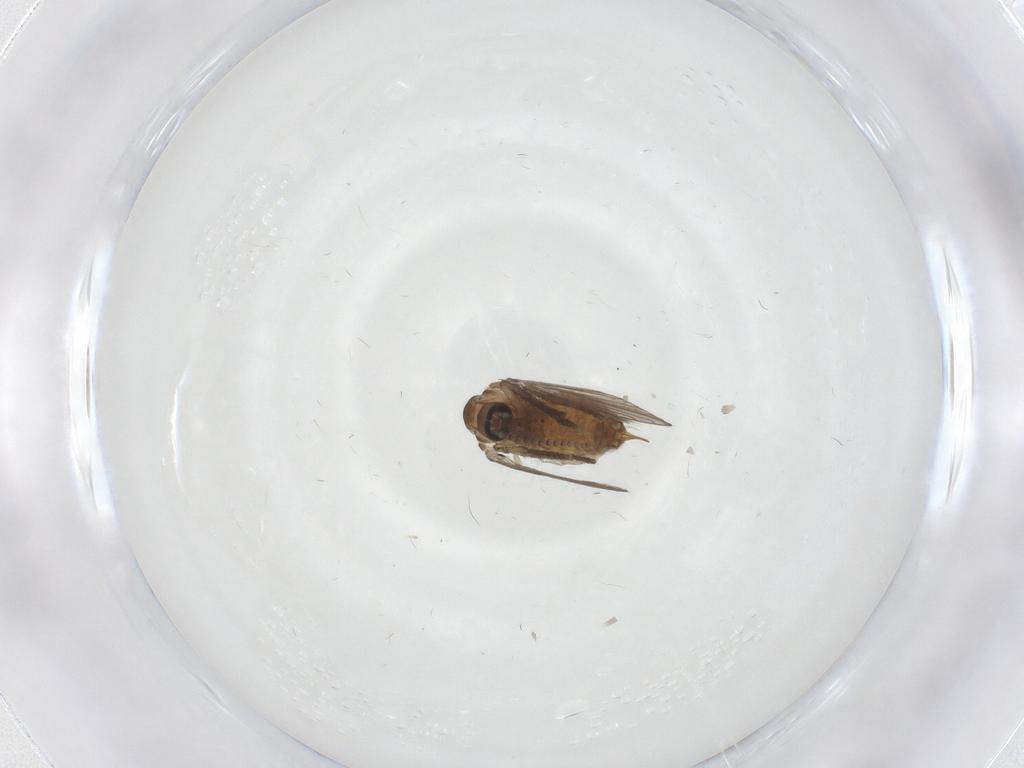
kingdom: Animalia
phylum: Arthropoda
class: Insecta
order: Diptera
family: Psychodidae
